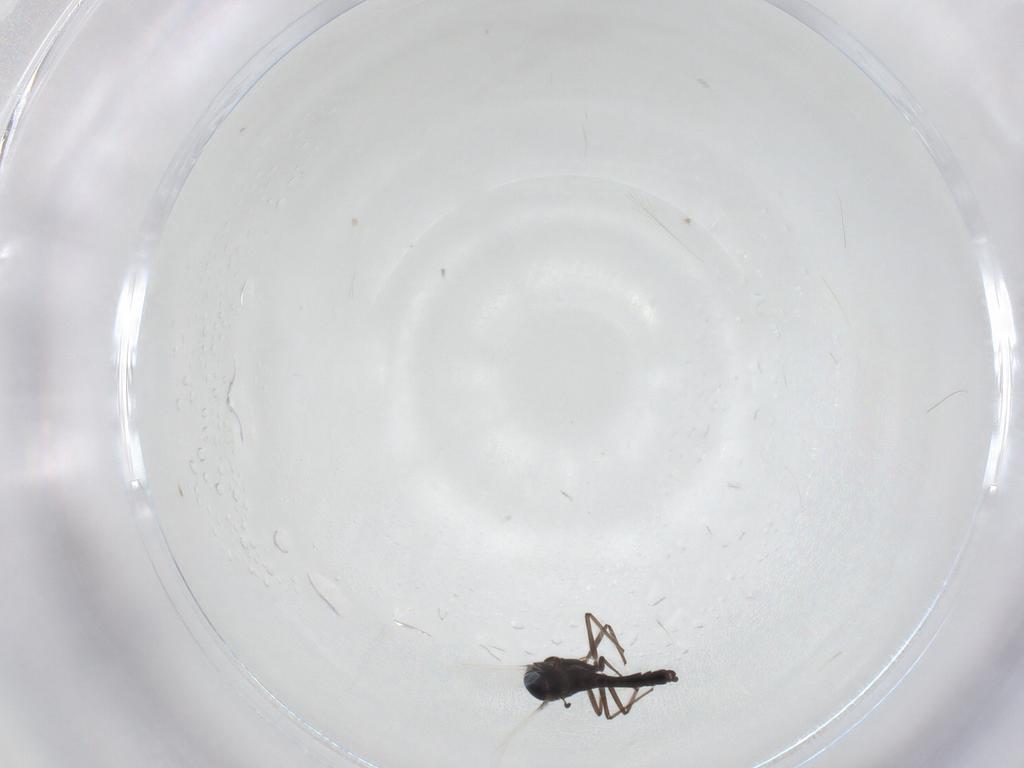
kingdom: Animalia
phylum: Arthropoda
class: Insecta
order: Diptera
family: Chironomidae
